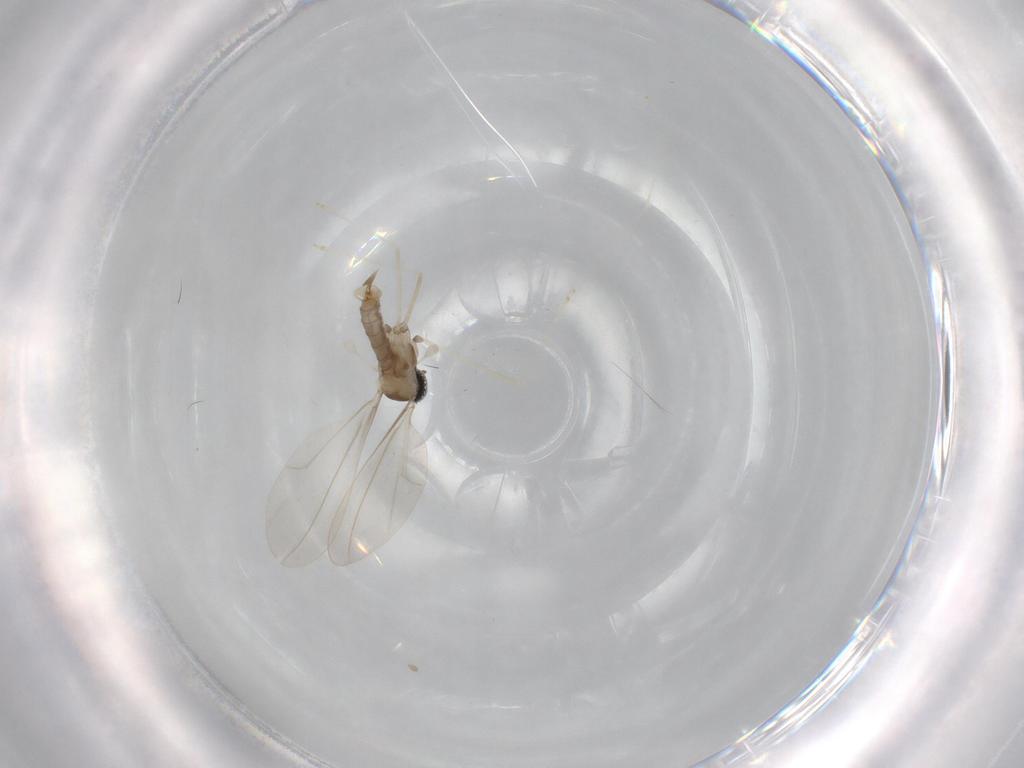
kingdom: Animalia
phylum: Arthropoda
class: Insecta
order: Diptera
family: Cecidomyiidae
